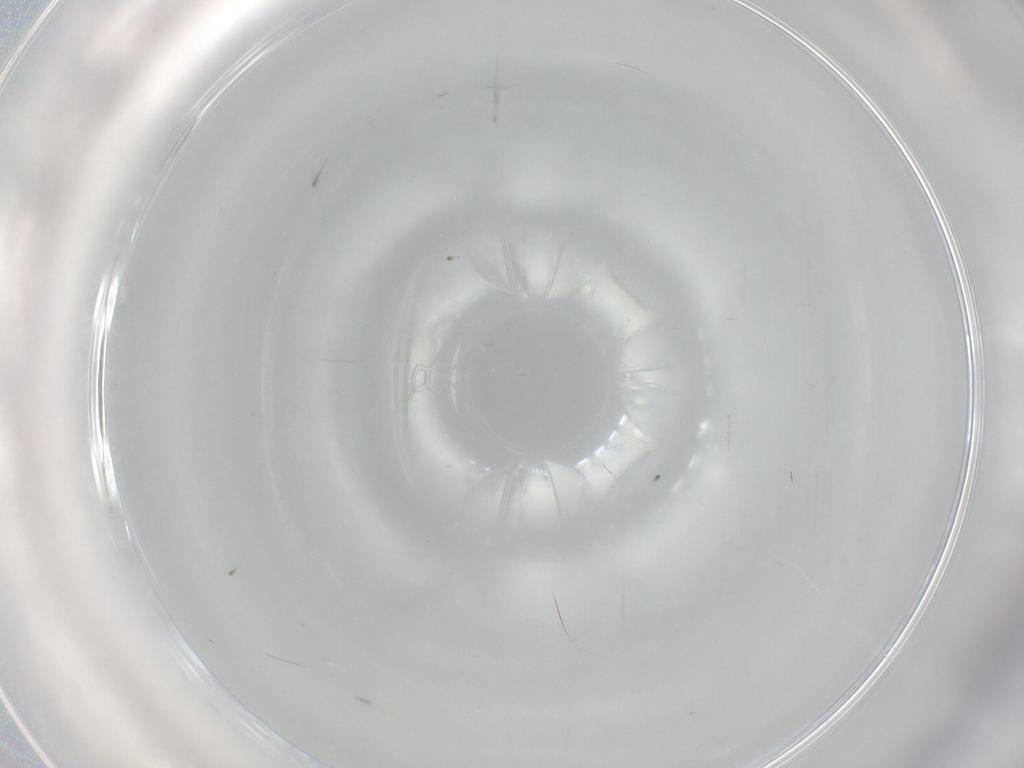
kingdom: Animalia
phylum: Arthropoda
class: Insecta
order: Diptera
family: Cecidomyiidae
